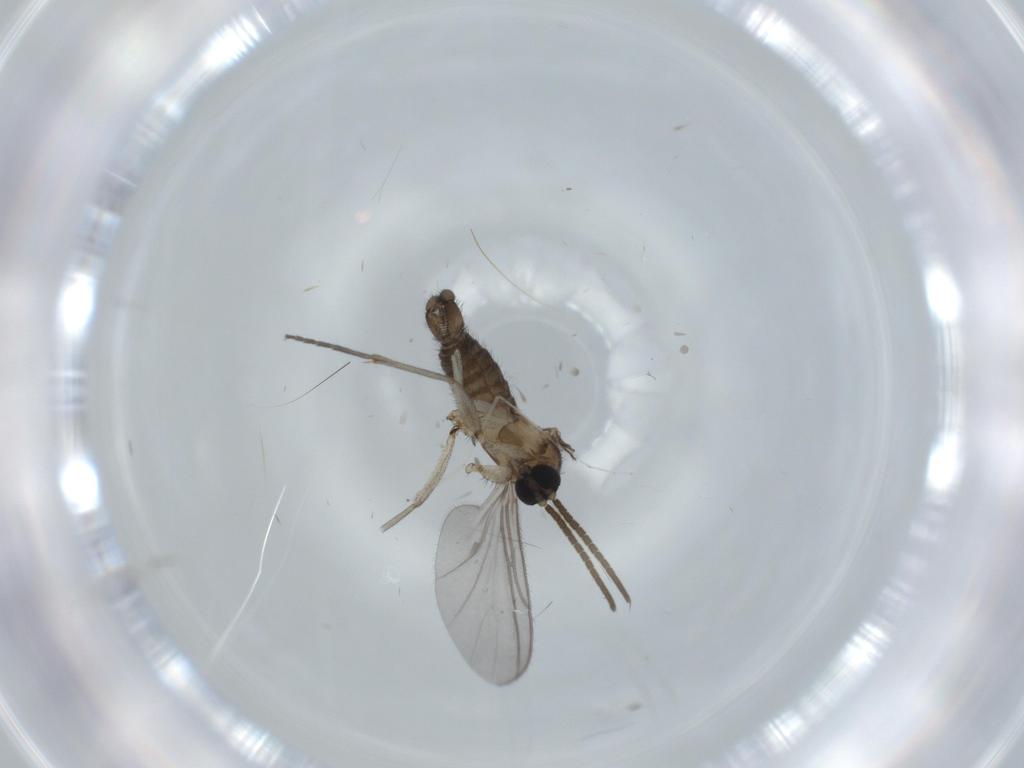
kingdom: Animalia
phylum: Arthropoda
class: Insecta
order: Diptera
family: Sciaridae
